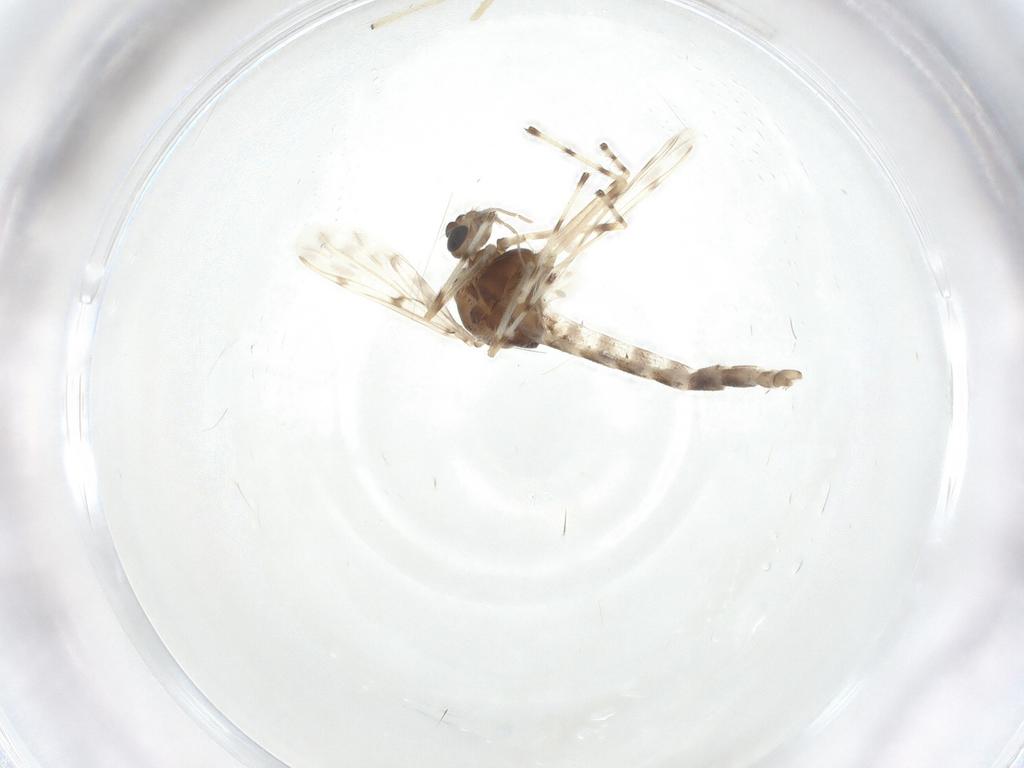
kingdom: Animalia
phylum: Arthropoda
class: Insecta
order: Diptera
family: Chironomidae
